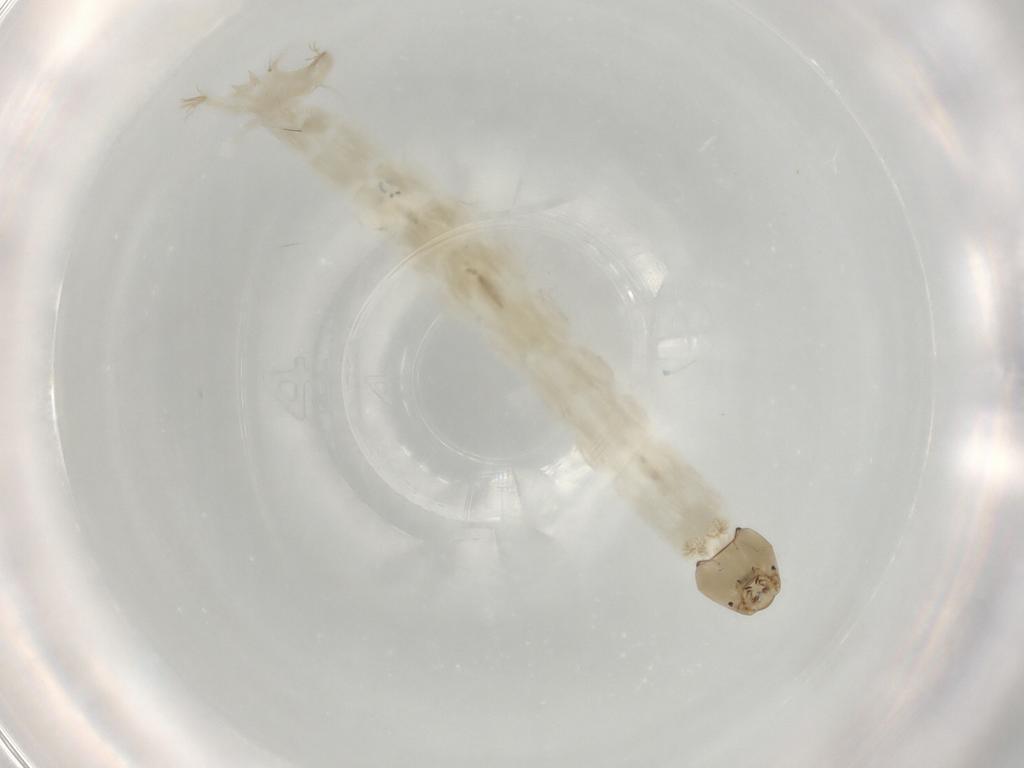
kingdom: Animalia
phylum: Arthropoda
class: Insecta
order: Diptera
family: Chironomidae
